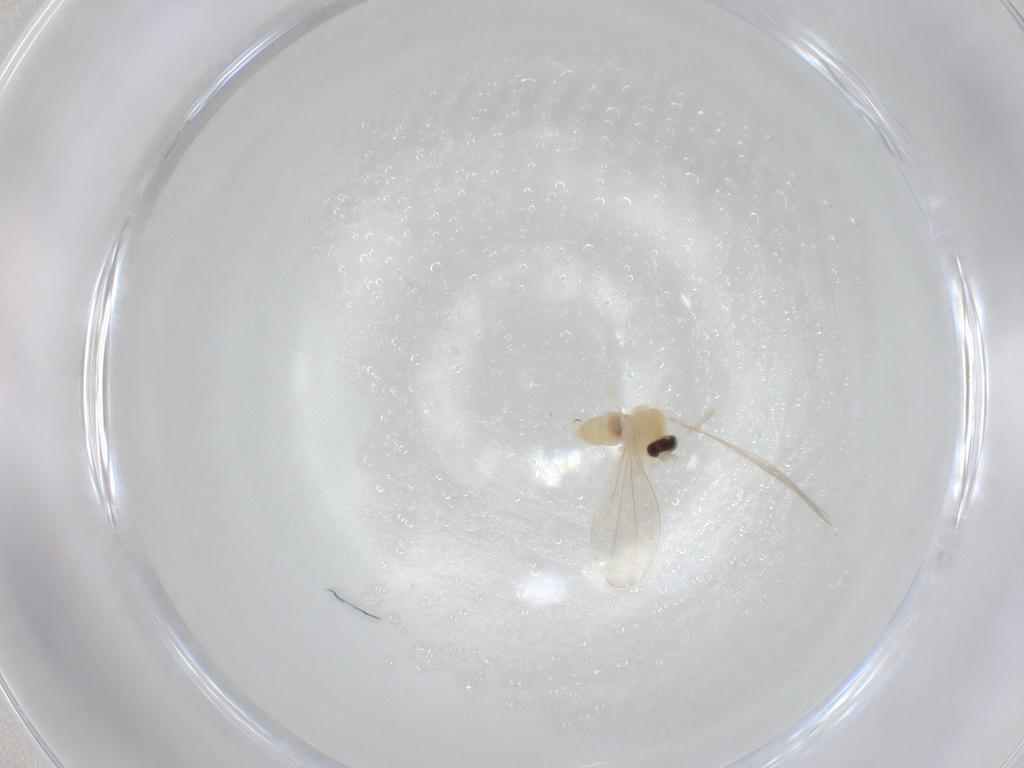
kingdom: Animalia
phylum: Arthropoda
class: Insecta
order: Diptera
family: Cecidomyiidae
